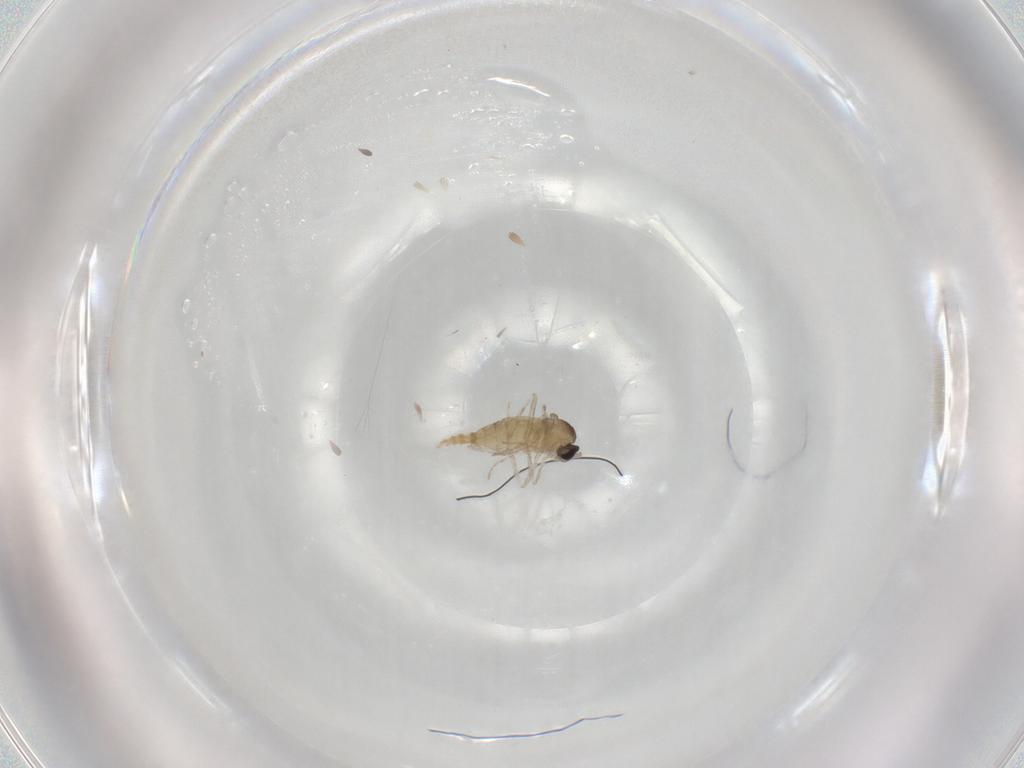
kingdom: Animalia
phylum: Arthropoda
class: Insecta
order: Diptera
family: Cecidomyiidae
